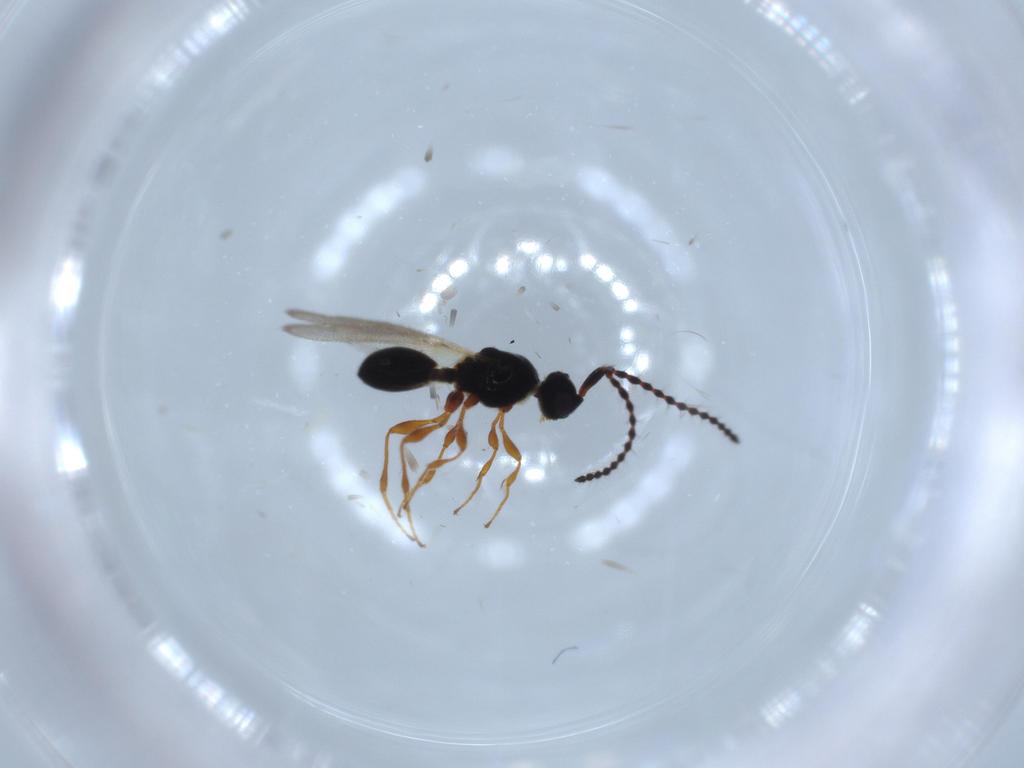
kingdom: Animalia
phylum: Arthropoda
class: Insecta
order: Hymenoptera
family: Diapriidae
